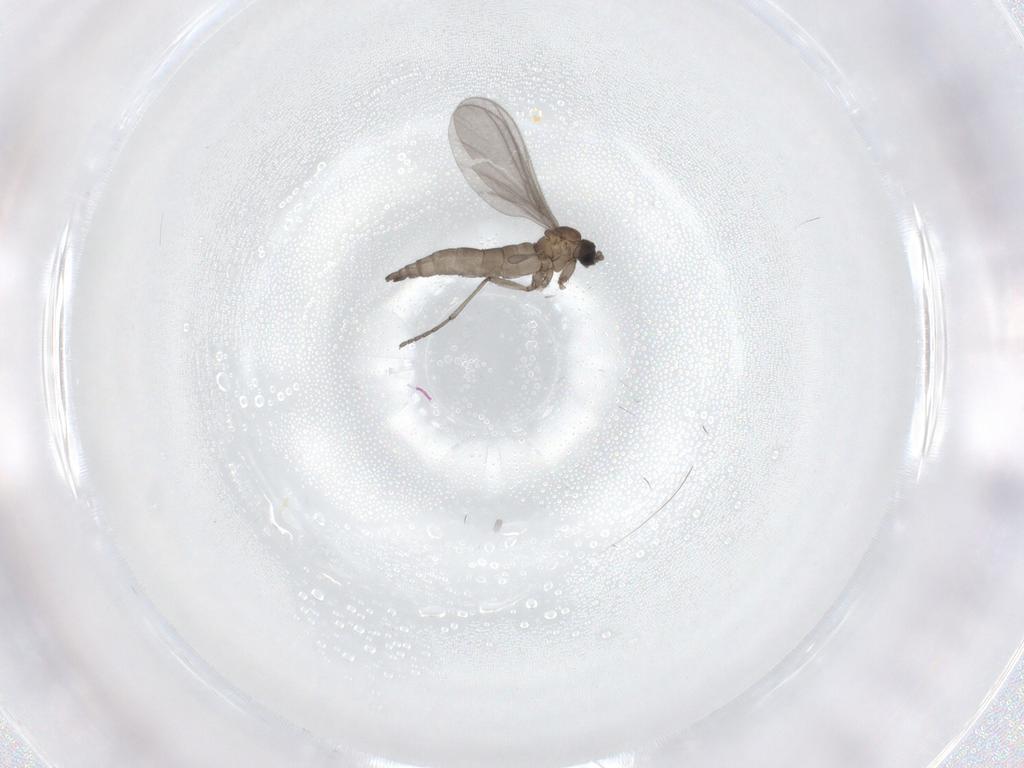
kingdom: Animalia
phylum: Arthropoda
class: Insecta
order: Diptera
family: Sciaridae
